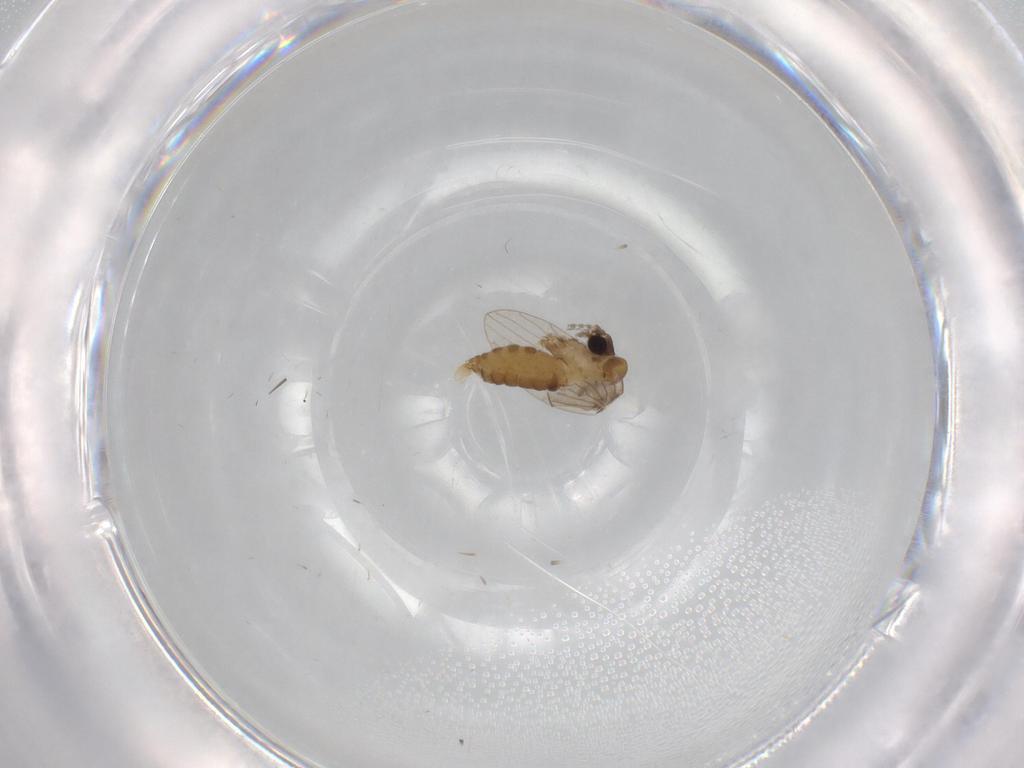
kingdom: Animalia
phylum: Arthropoda
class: Insecta
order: Diptera
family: Psychodidae
